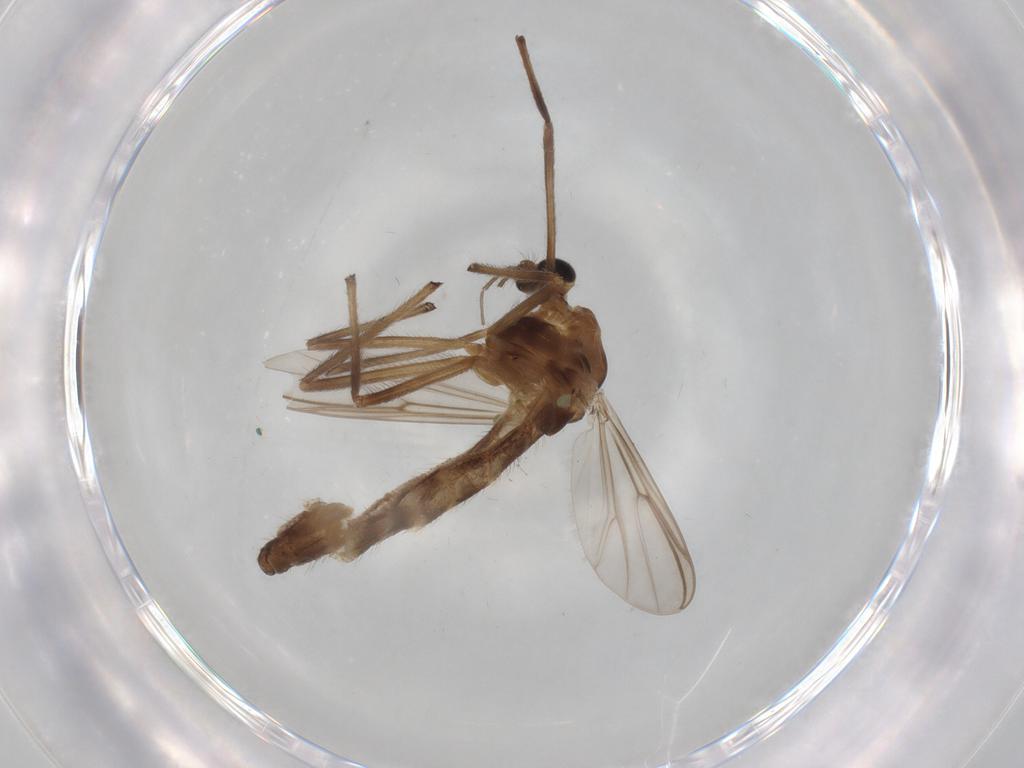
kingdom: Animalia
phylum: Arthropoda
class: Insecta
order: Diptera
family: Chironomidae
